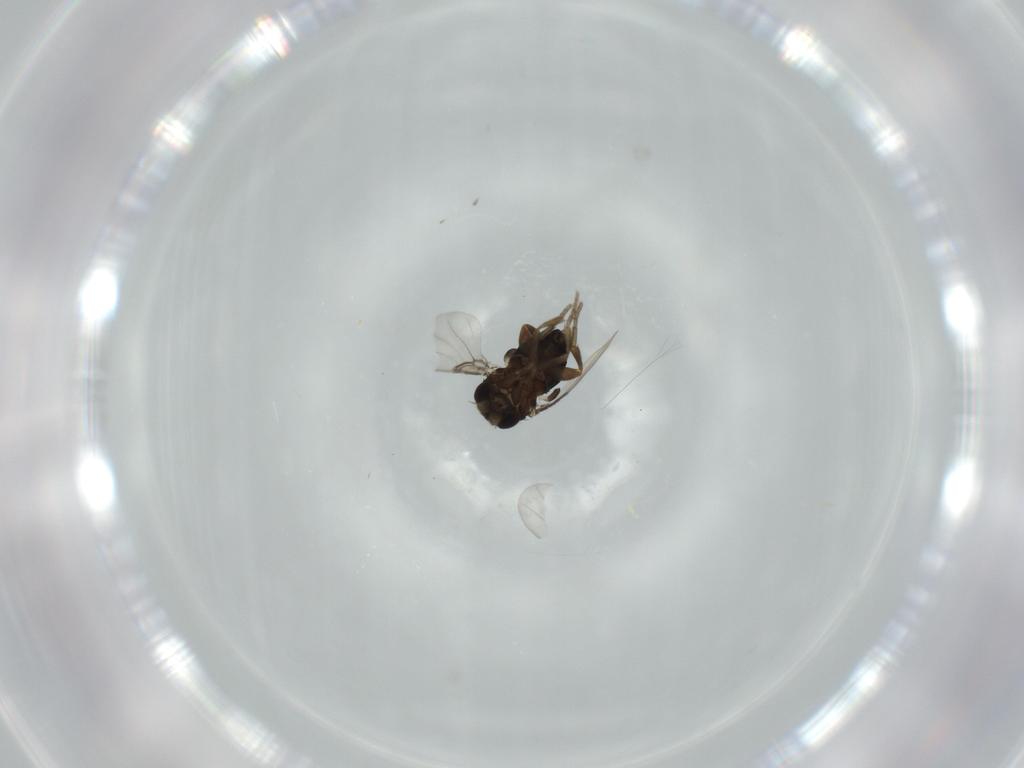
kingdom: Animalia
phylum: Arthropoda
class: Insecta
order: Diptera
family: Phoridae
